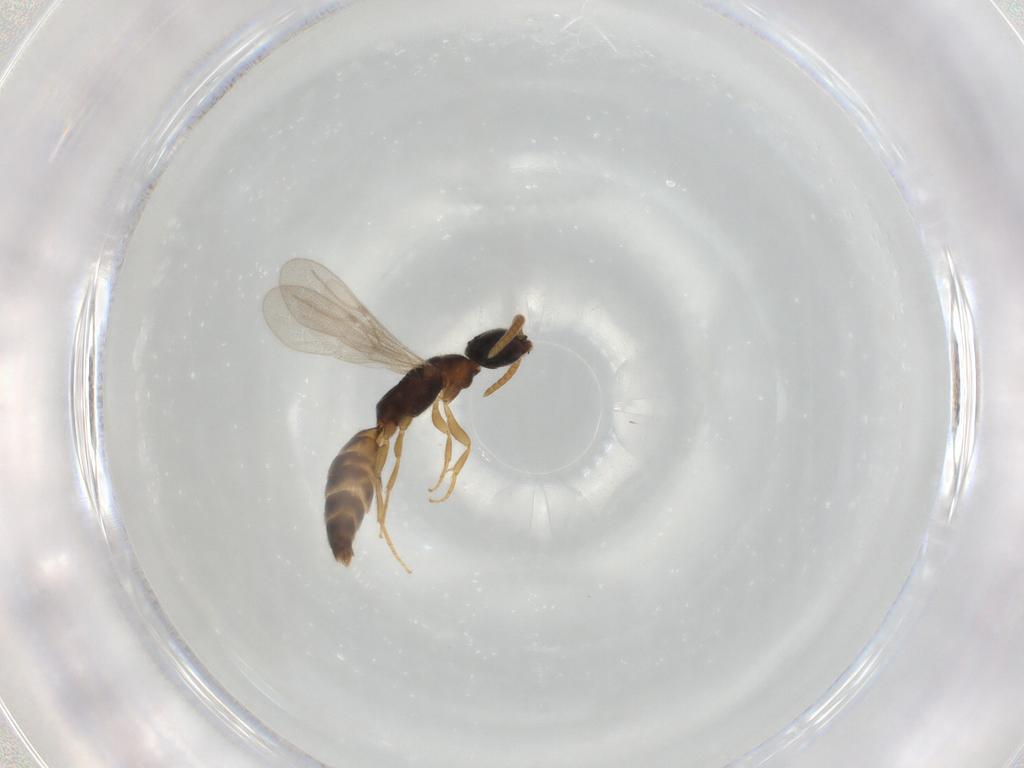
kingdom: Animalia
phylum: Arthropoda
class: Insecta
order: Hymenoptera
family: Bethylidae
